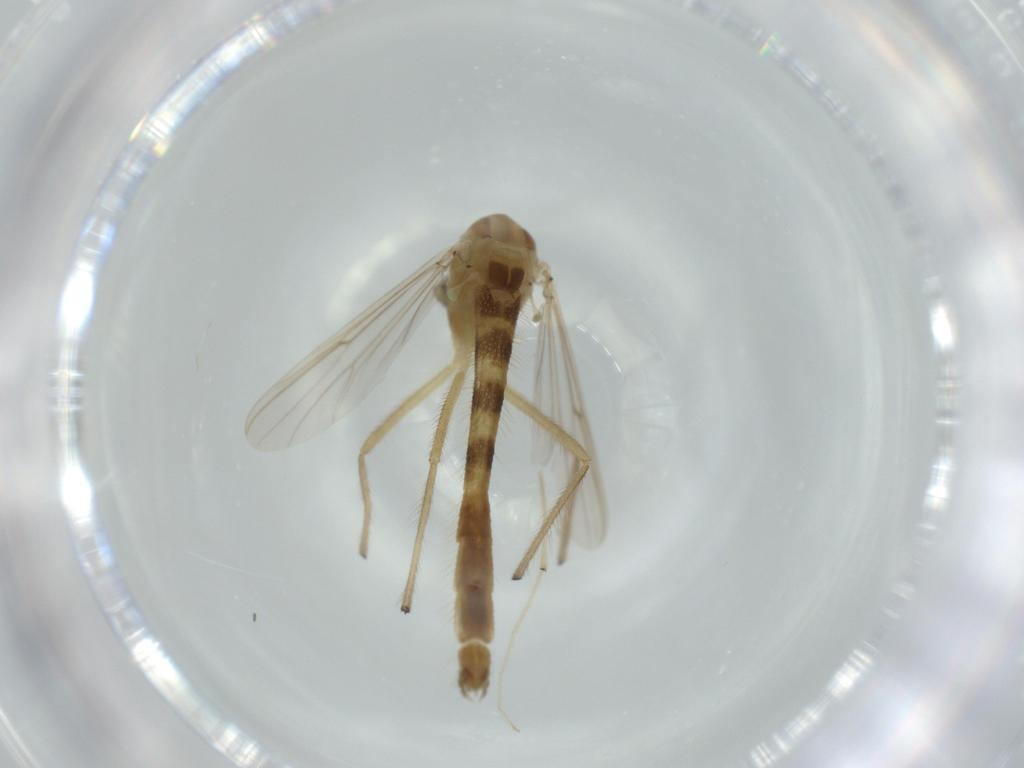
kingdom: Animalia
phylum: Arthropoda
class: Insecta
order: Diptera
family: Chironomidae
